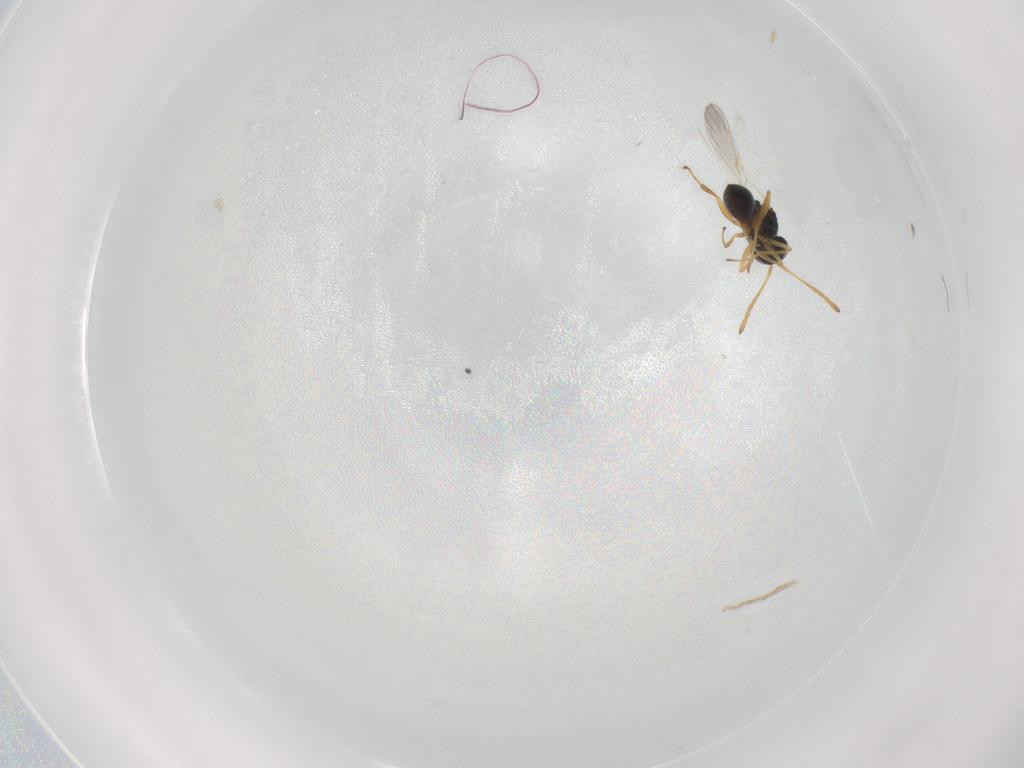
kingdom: Animalia
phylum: Arthropoda
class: Insecta
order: Hymenoptera
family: Figitidae
